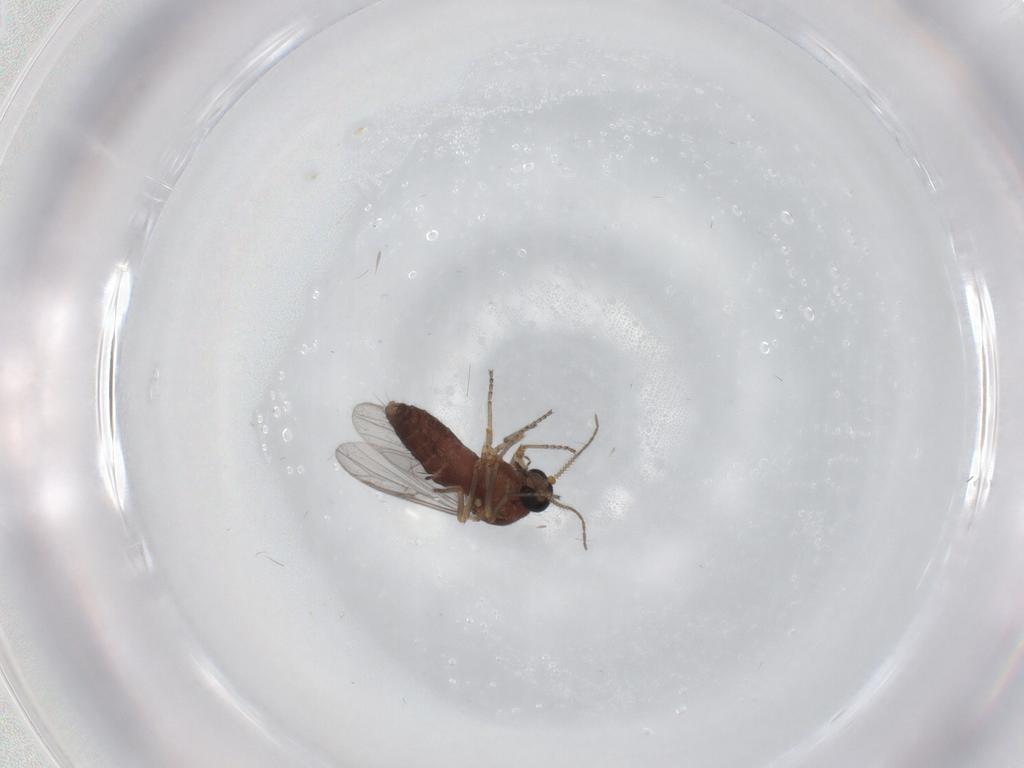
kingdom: Animalia
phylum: Arthropoda
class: Insecta
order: Diptera
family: Ceratopogonidae
